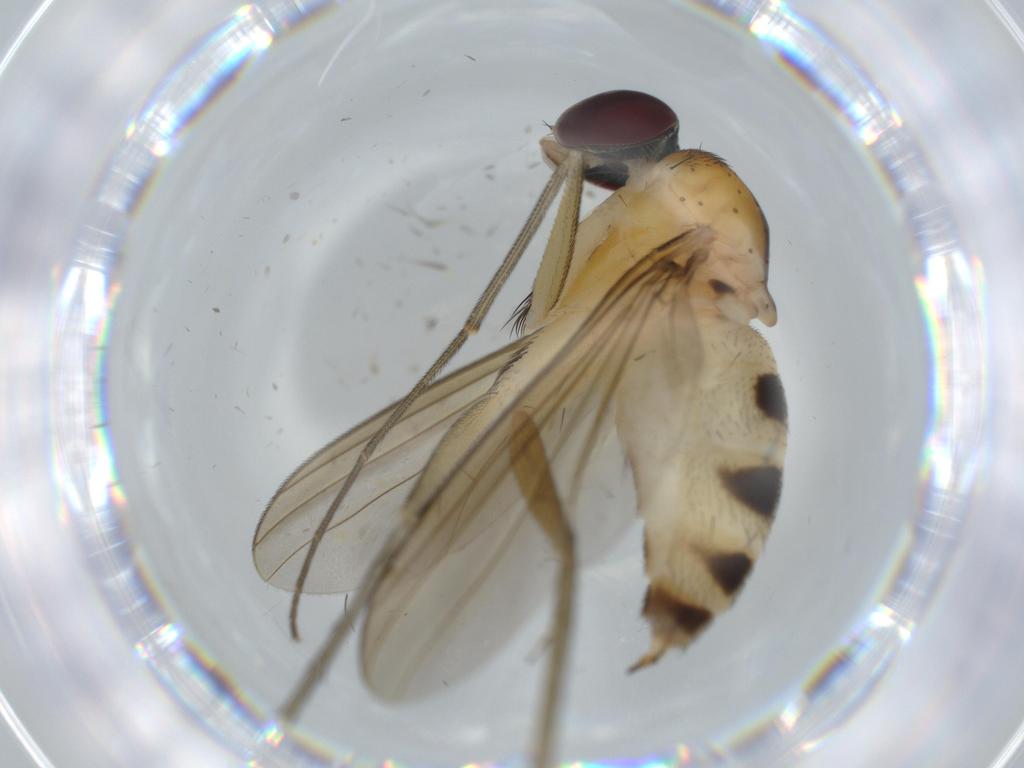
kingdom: Animalia
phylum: Arthropoda
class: Insecta
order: Diptera
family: Dolichopodidae
